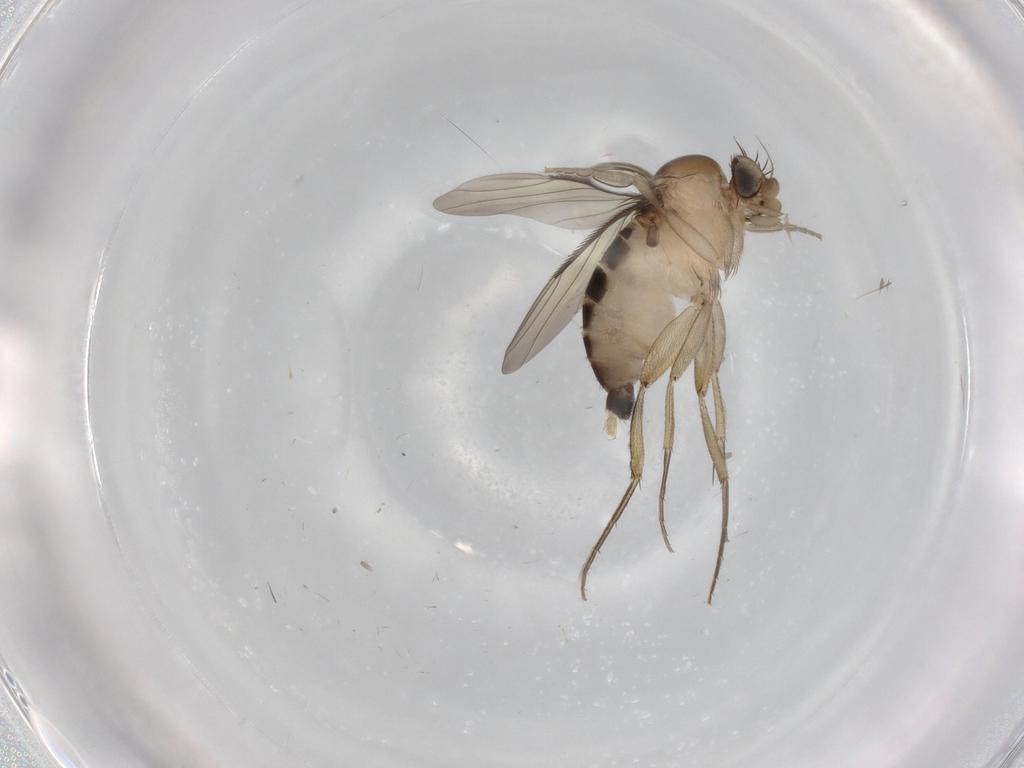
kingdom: Animalia
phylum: Arthropoda
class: Insecta
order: Diptera
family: Phoridae
